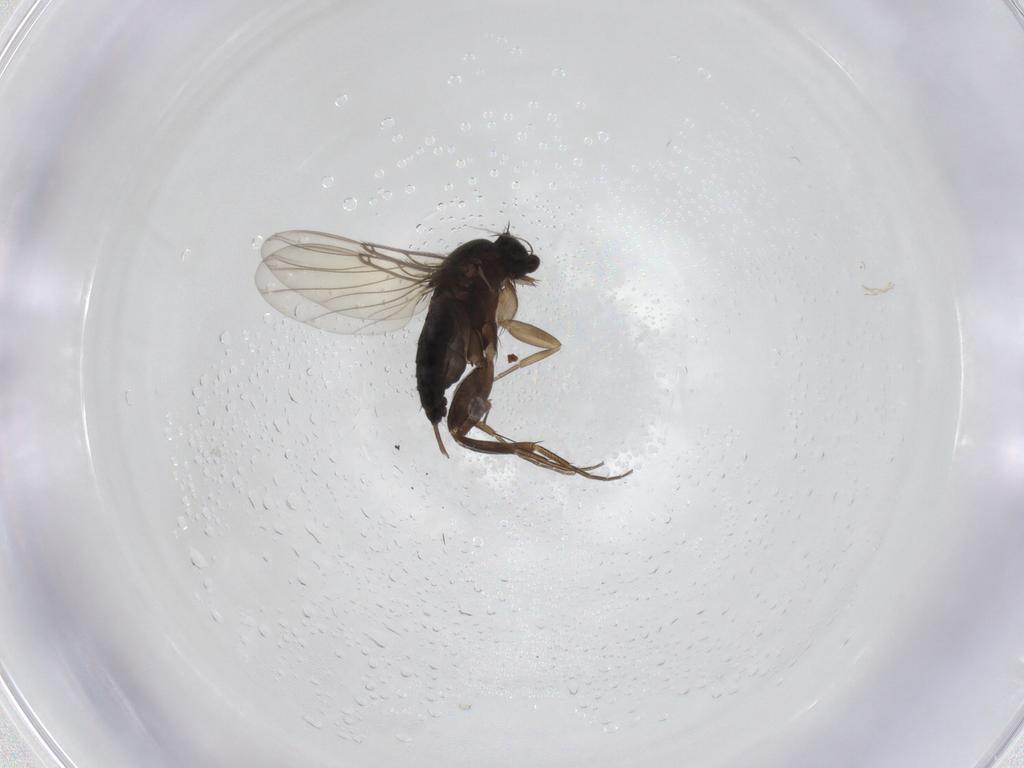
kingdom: Animalia
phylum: Arthropoda
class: Insecta
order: Diptera
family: Phoridae
